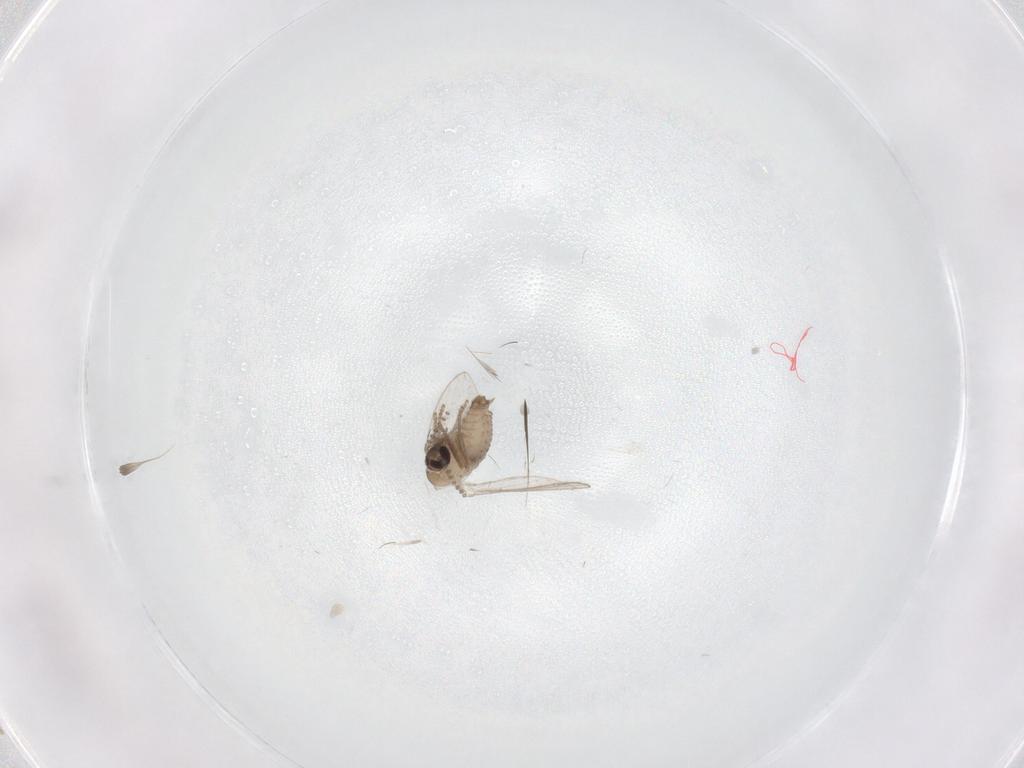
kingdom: Animalia
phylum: Arthropoda
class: Insecta
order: Diptera
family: Psychodidae
